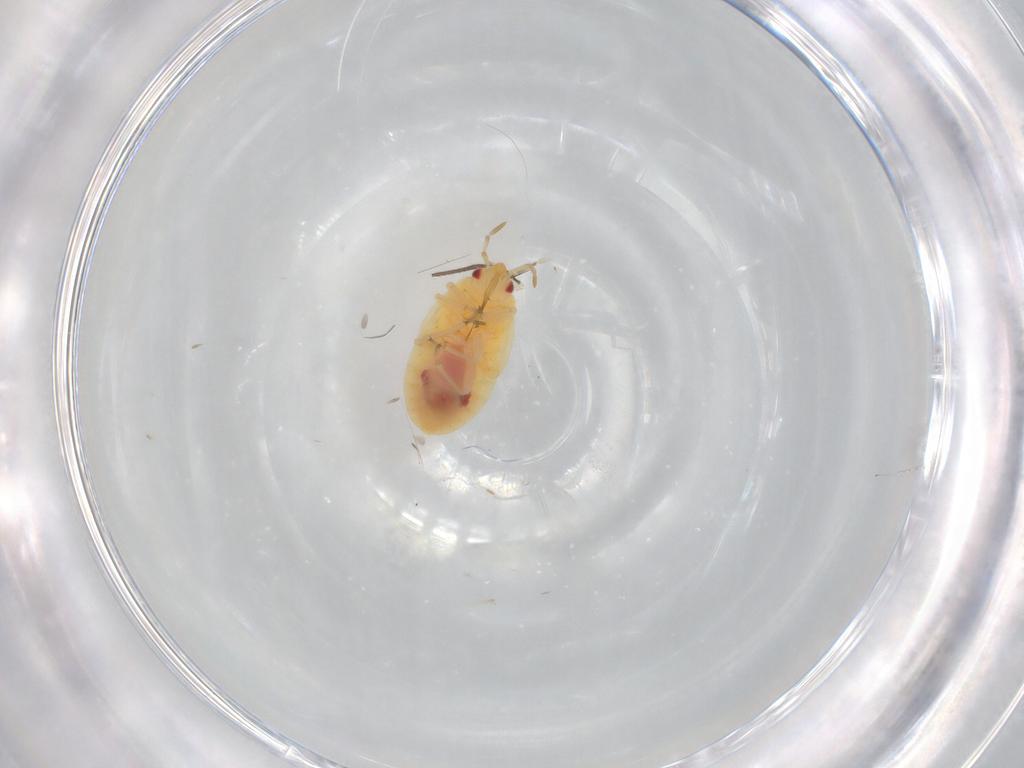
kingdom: Animalia
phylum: Arthropoda
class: Insecta
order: Hemiptera
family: Anthocoridae
